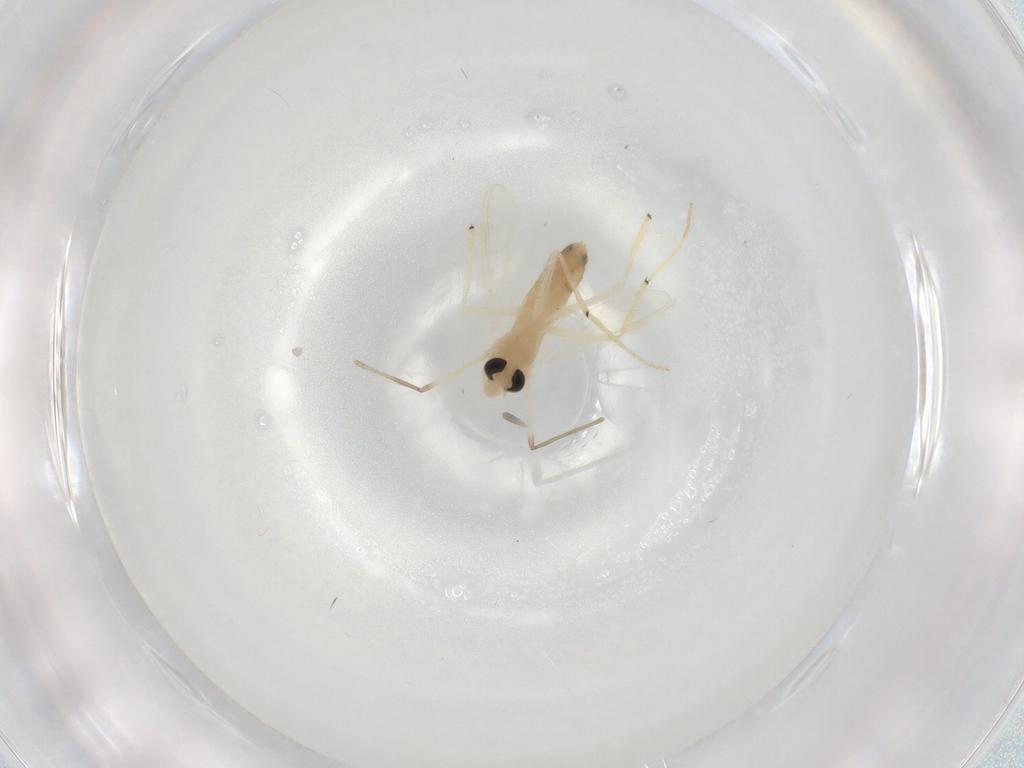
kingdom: Animalia
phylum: Arthropoda
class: Insecta
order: Diptera
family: Chironomidae
